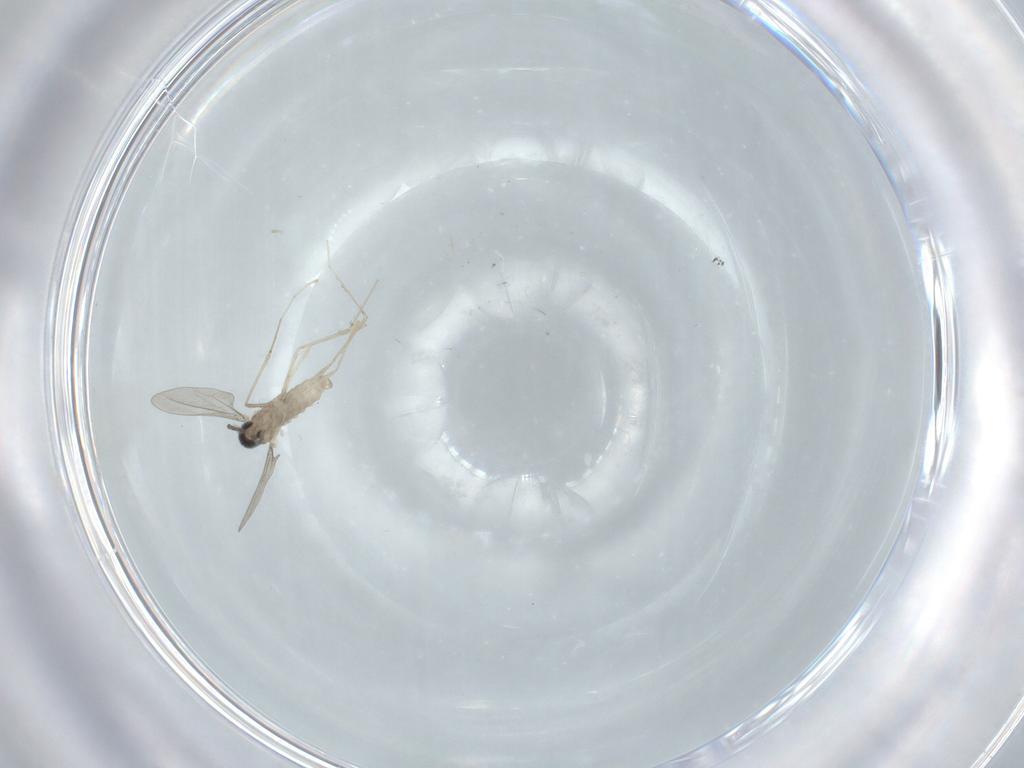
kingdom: Animalia
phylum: Arthropoda
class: Insecta
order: Diptera
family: Cecidomyiidae
